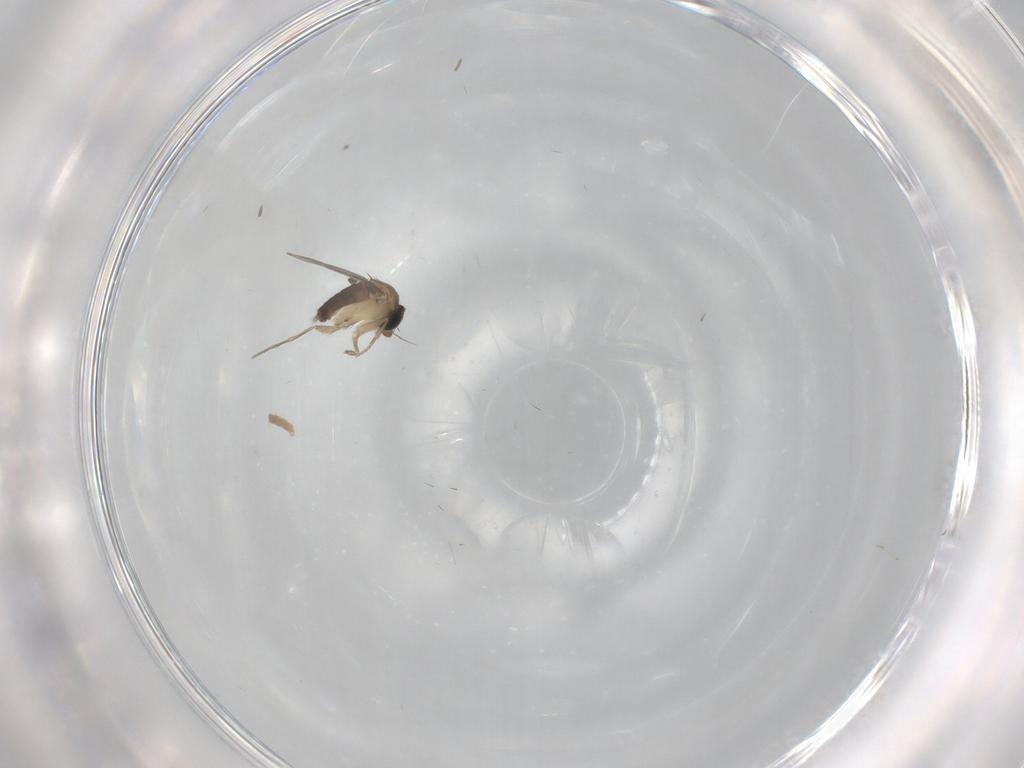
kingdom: Animalia
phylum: Arthropoda
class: Insecta
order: Diptera
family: Phoridae
